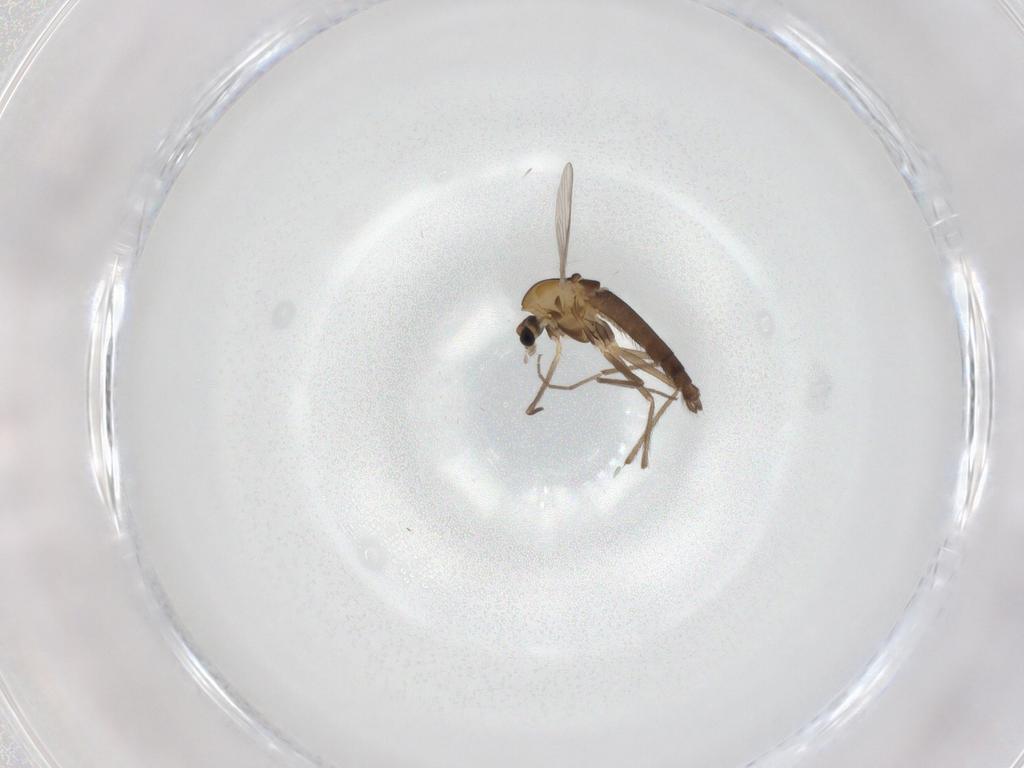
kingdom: Animalia
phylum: Arthropoda
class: Insecta
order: Diptera
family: Chironomidae
